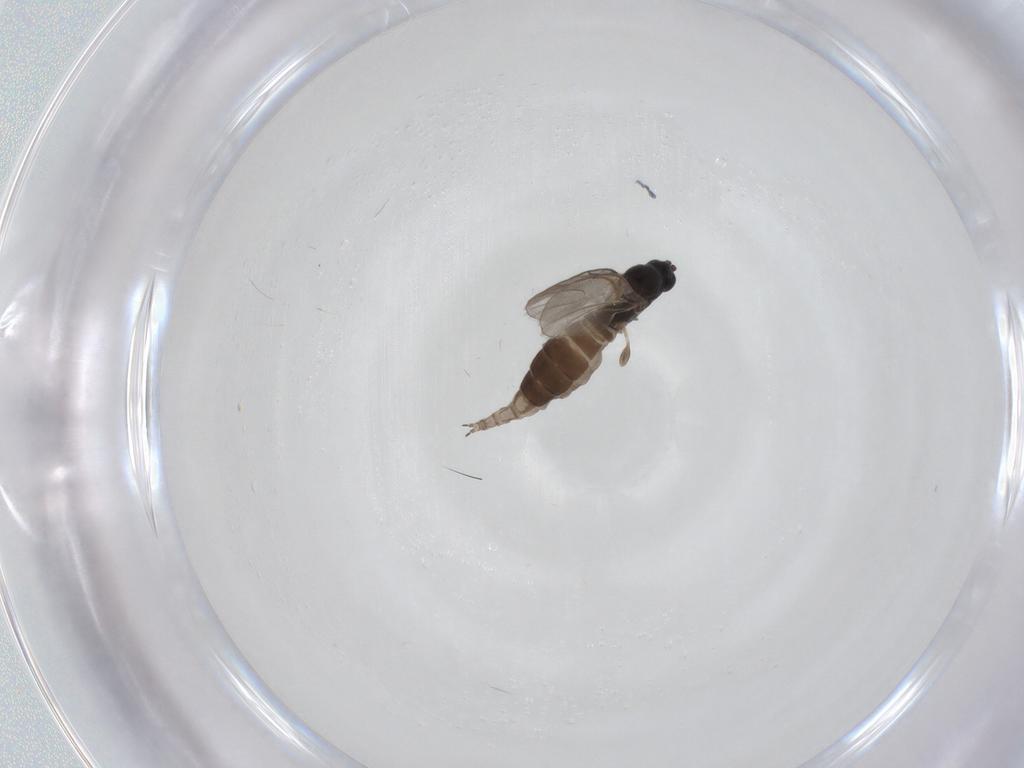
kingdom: Animalia
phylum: Arthropoda
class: Insecta
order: Diptera
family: Sciaridae
